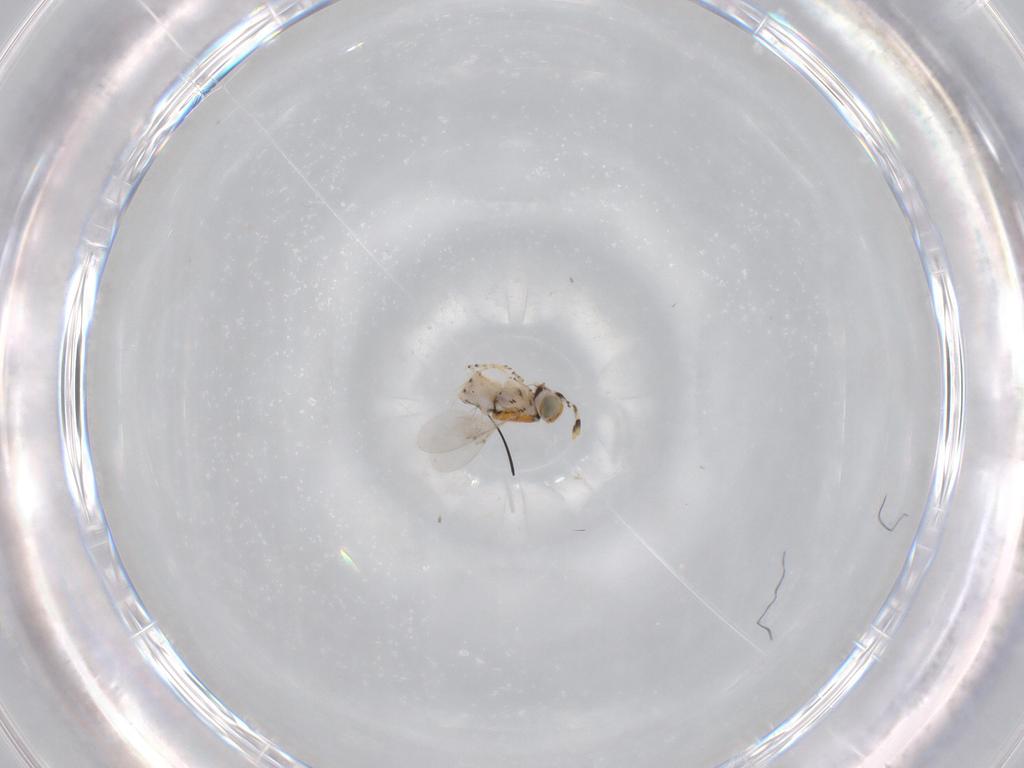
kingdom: Animalia
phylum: Arthropoda
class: Insecta
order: Hymenoptera
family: Encyrtidae
